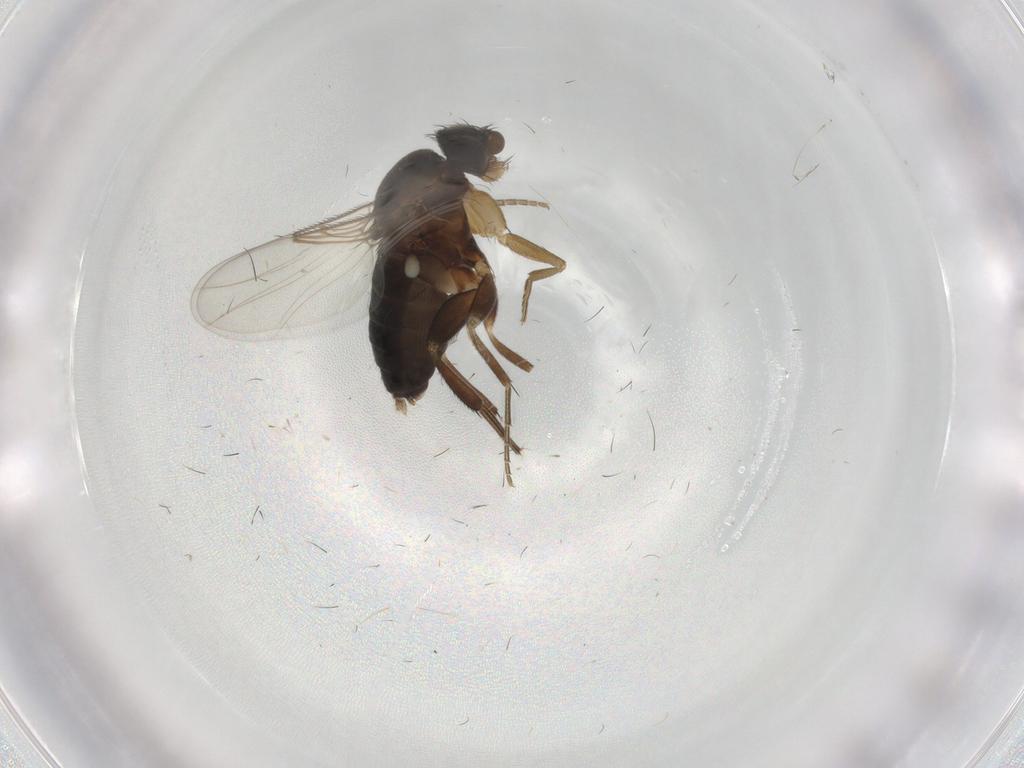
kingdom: Animalia
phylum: Arthropoda
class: Insecta
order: Diptera
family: Phoridae
